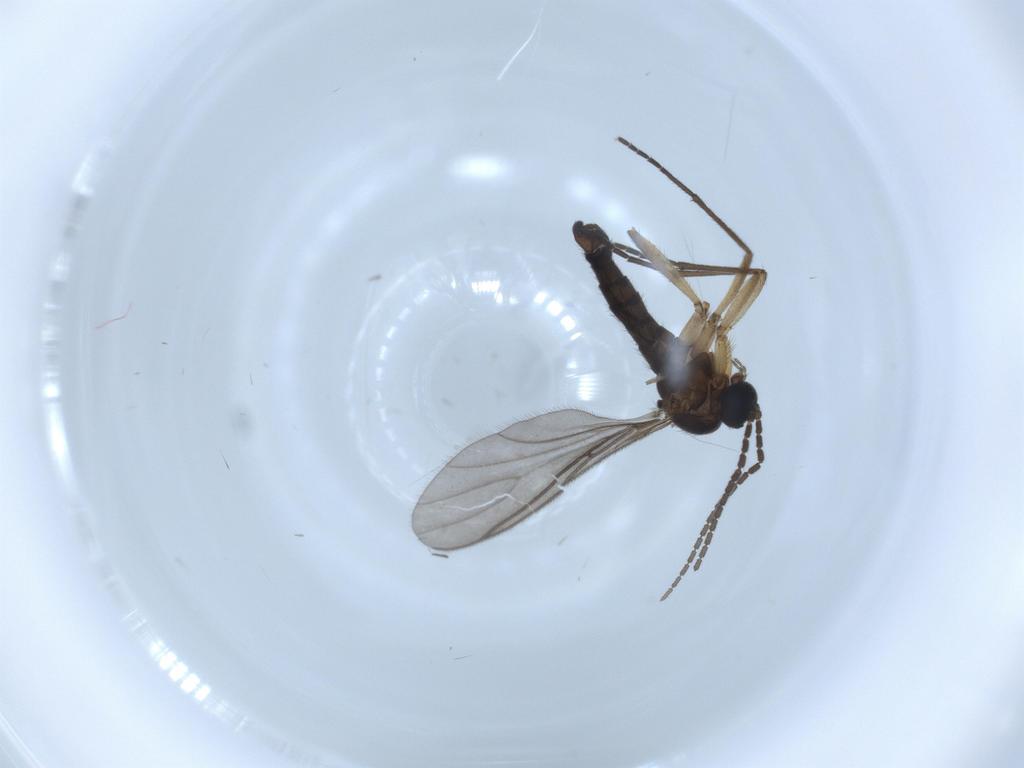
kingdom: Animalia
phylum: Arthropoda
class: Insecta
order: Diptera
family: Sciaridae
